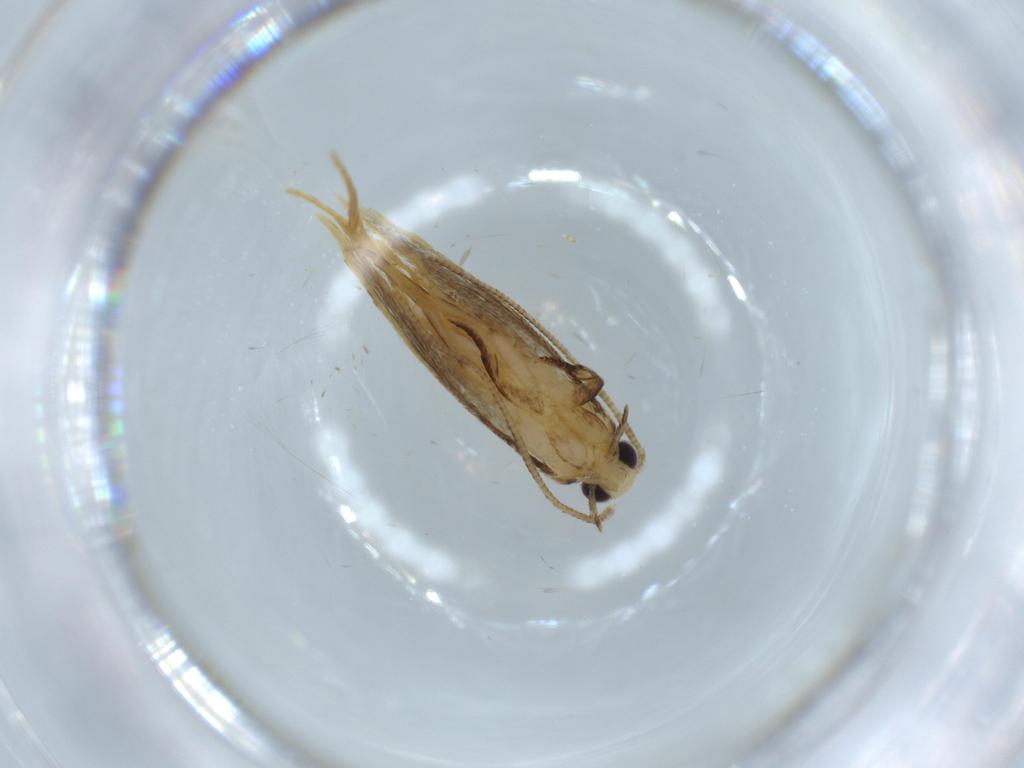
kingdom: Animalia
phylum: Arthropoda
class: Insecta
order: Lepidoptera
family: Tineidae
